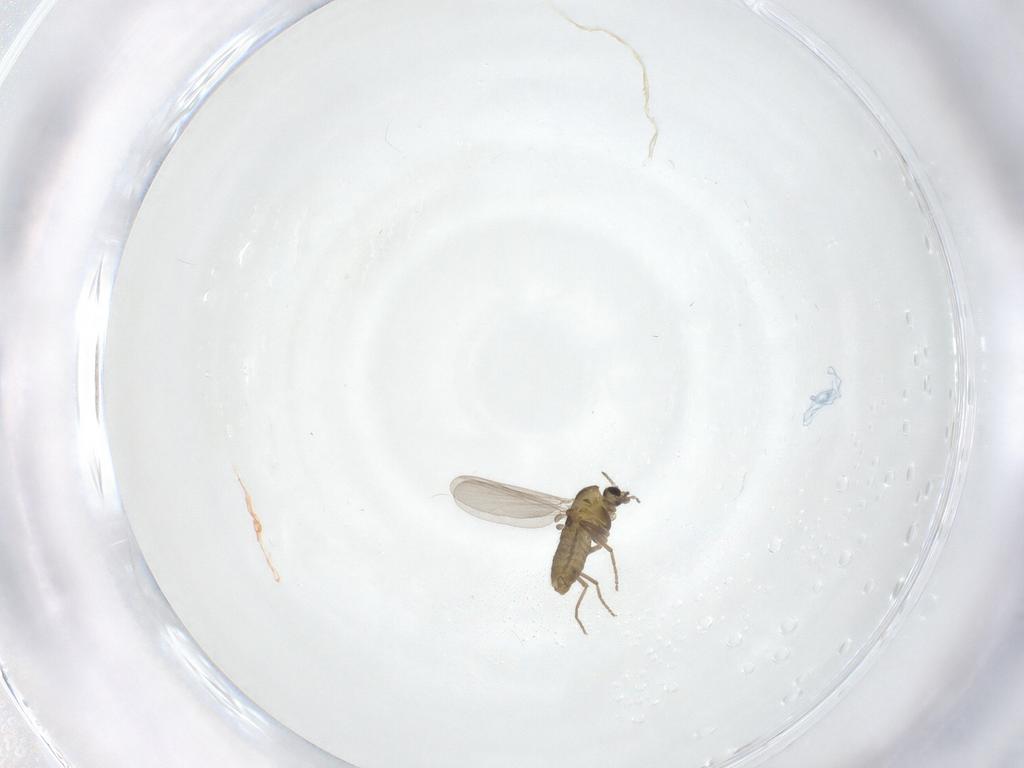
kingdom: Animalia
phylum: Arthropoda
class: Insecta
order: Diptera
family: Chironomidae
